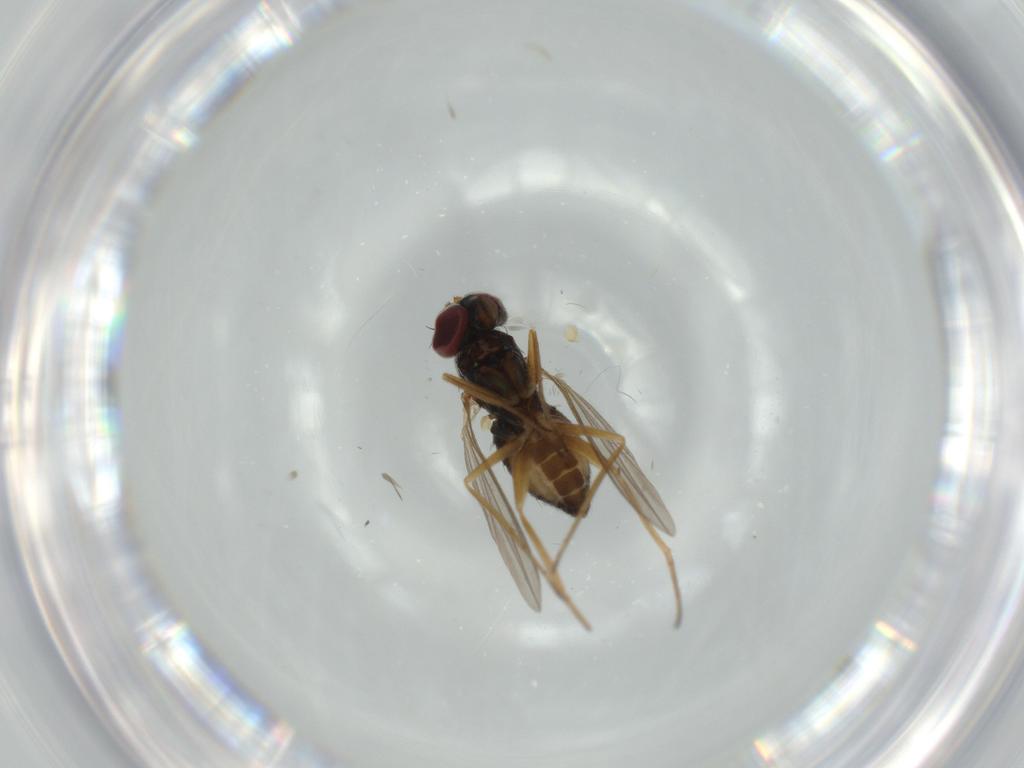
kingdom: Animalia
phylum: Arthropoda
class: Insecta
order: Diptera
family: Dolichopodidae
